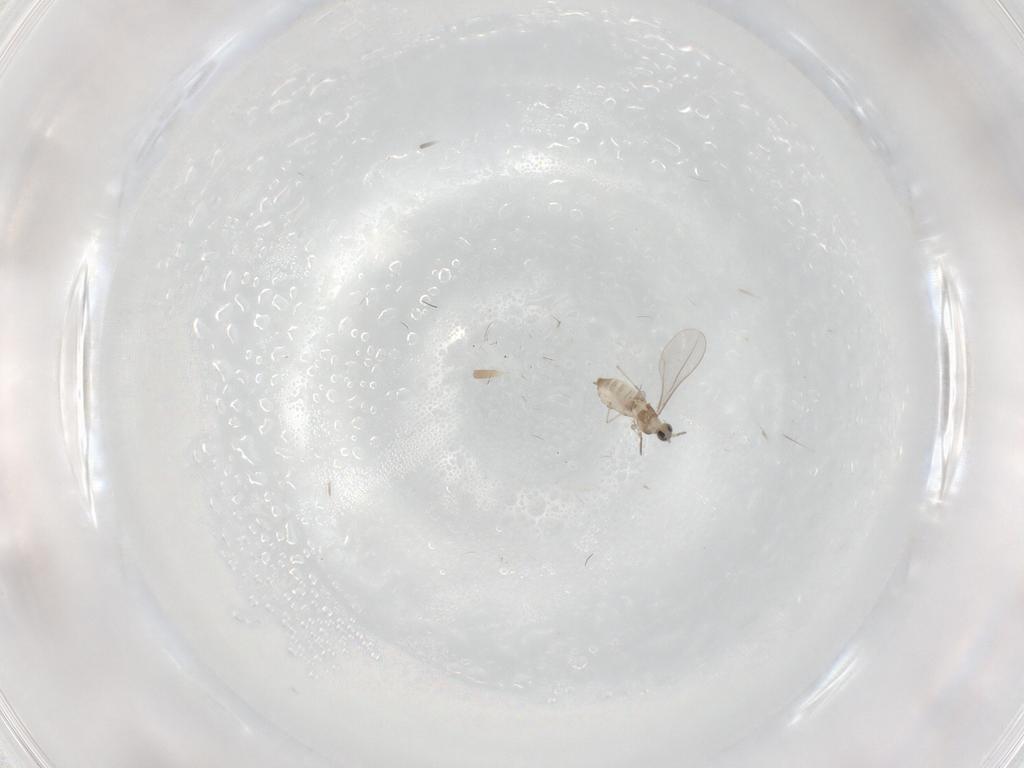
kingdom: Animalia
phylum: Arthropoda
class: Insecta
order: Diptera
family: Cecidomyiidae
